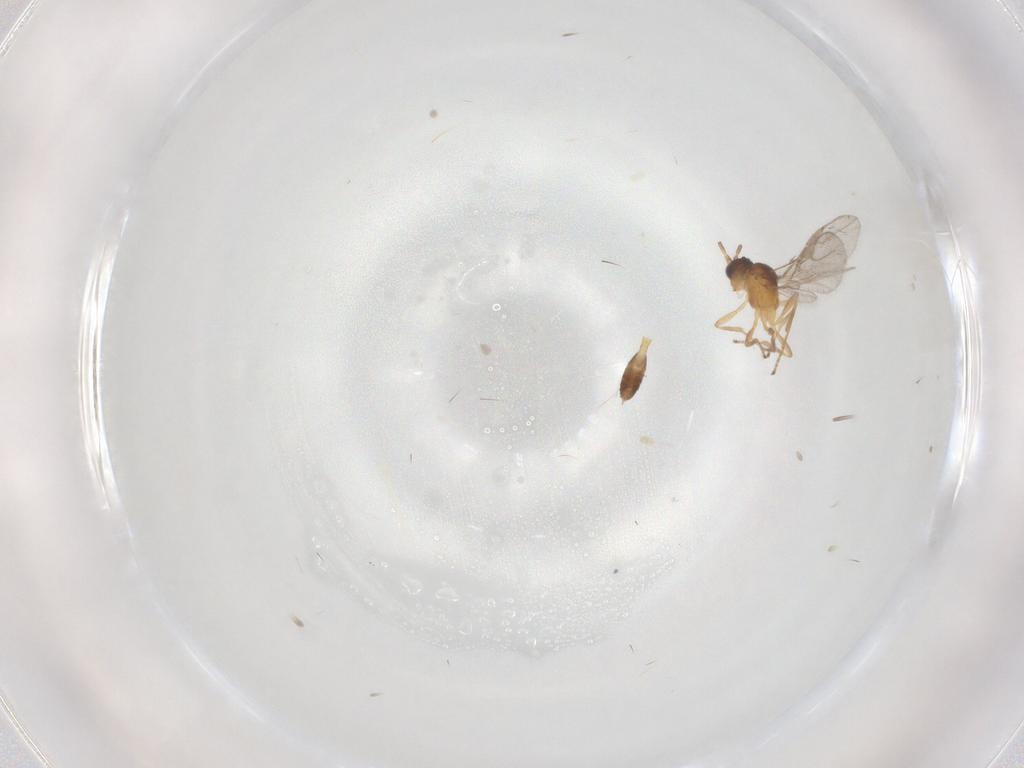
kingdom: Animalia
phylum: Arthropoda
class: Insecta
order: Hymenoptera
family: Braconidae
